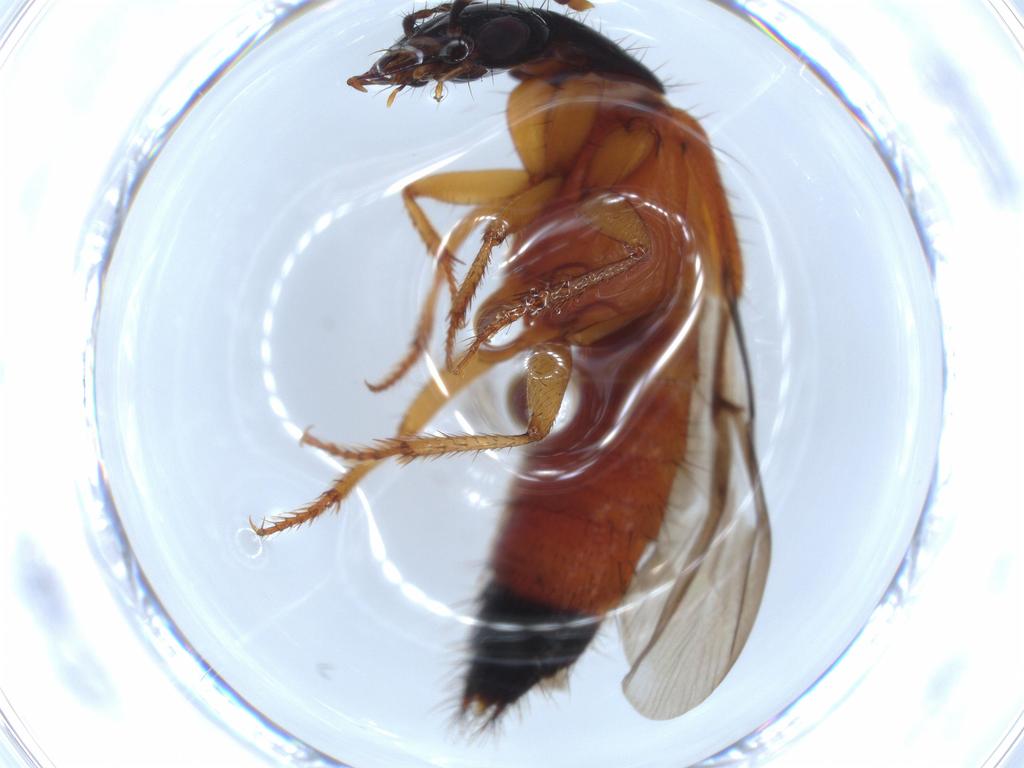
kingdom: Animalia
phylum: Arthropoda
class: Insecta
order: Coleoptera
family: Staphylinidae
